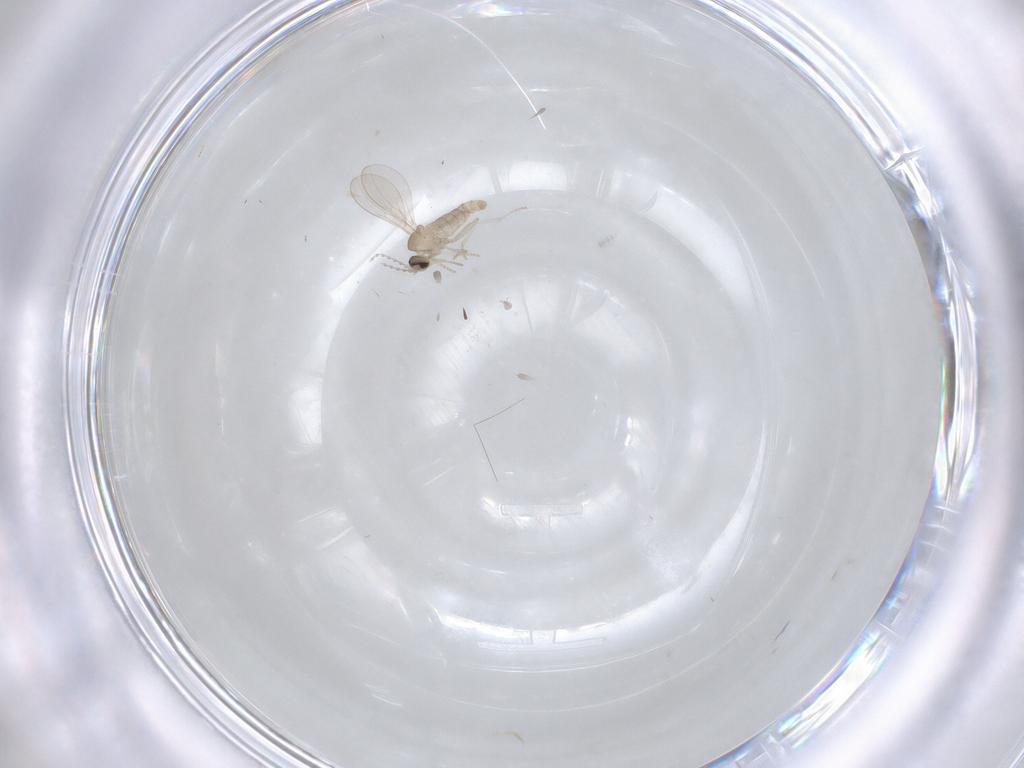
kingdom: Animalia
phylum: Arthropoda
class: Insecta
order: Diptera
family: Cecidomyiidae
